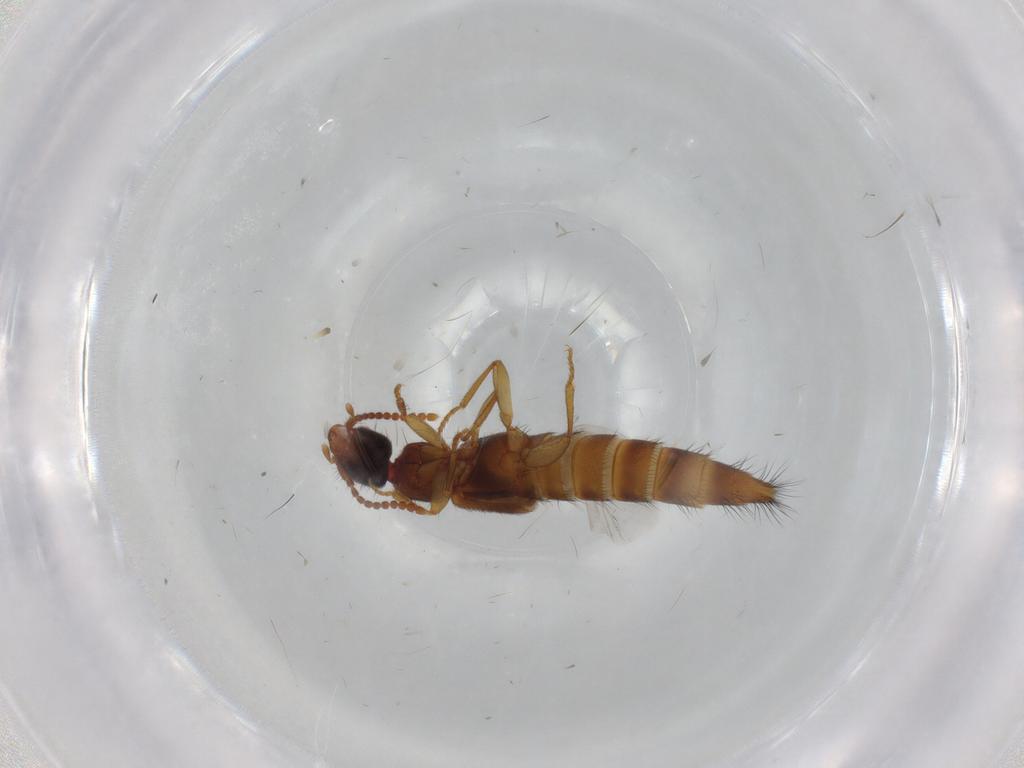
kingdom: Animalia
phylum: Arthropoda
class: Insecta
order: Coleoptera
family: Staphylinidae
